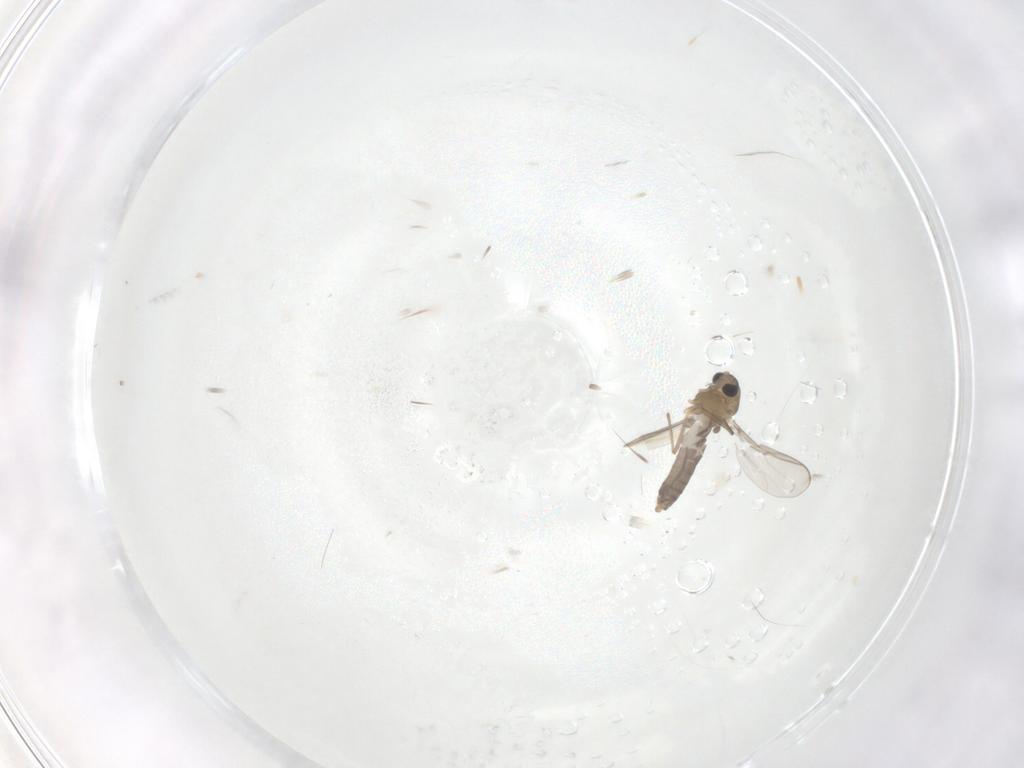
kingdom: Animalia
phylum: Arthropoda
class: Insecta
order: Diptera
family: Chironomidae
